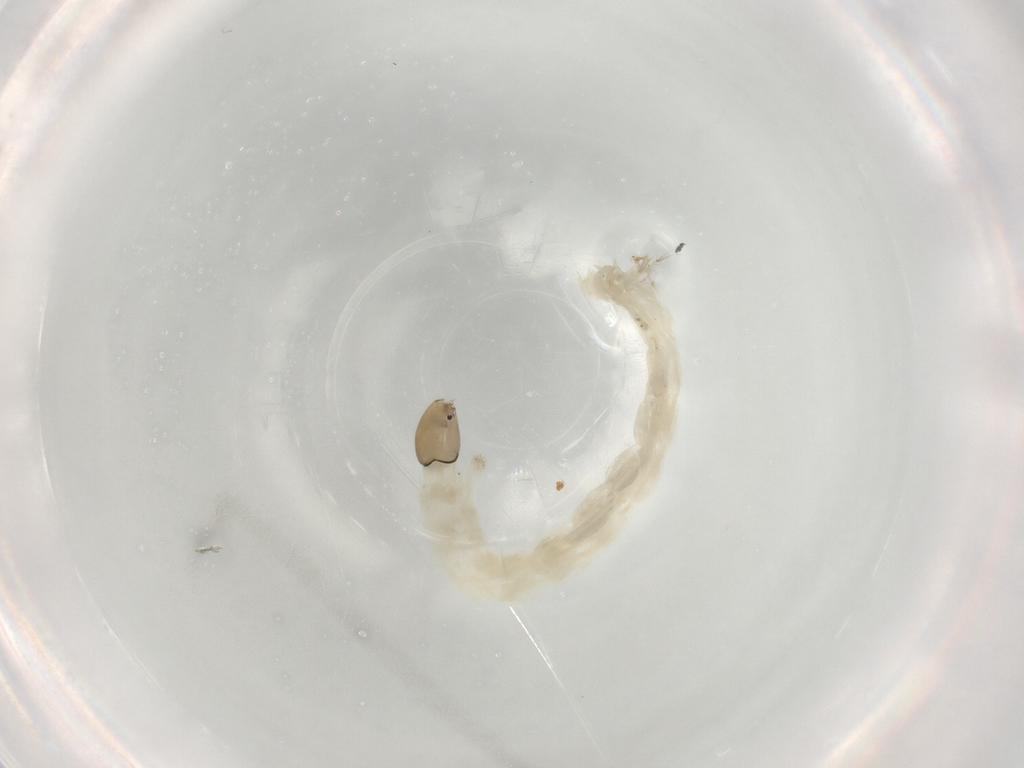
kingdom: Animalia
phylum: Arthropoda
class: Insecta
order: Diptera
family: Chironomidae
